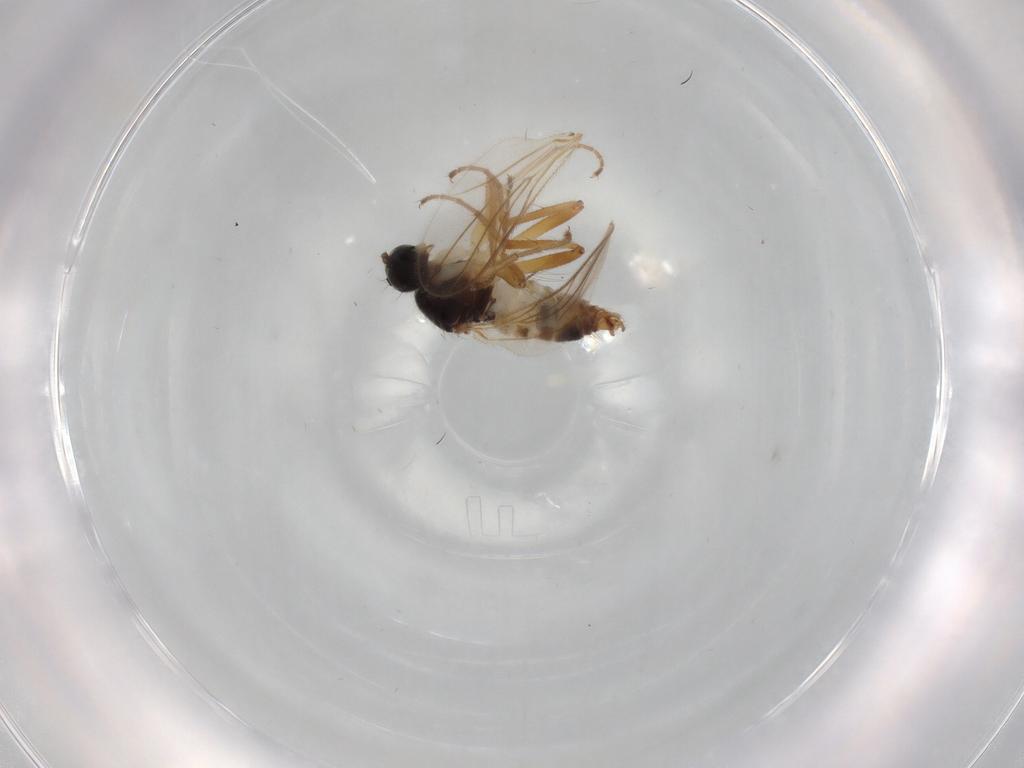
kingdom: Animalia
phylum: Arthropoda
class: Insecta
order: Diptera
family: Hybotidae
